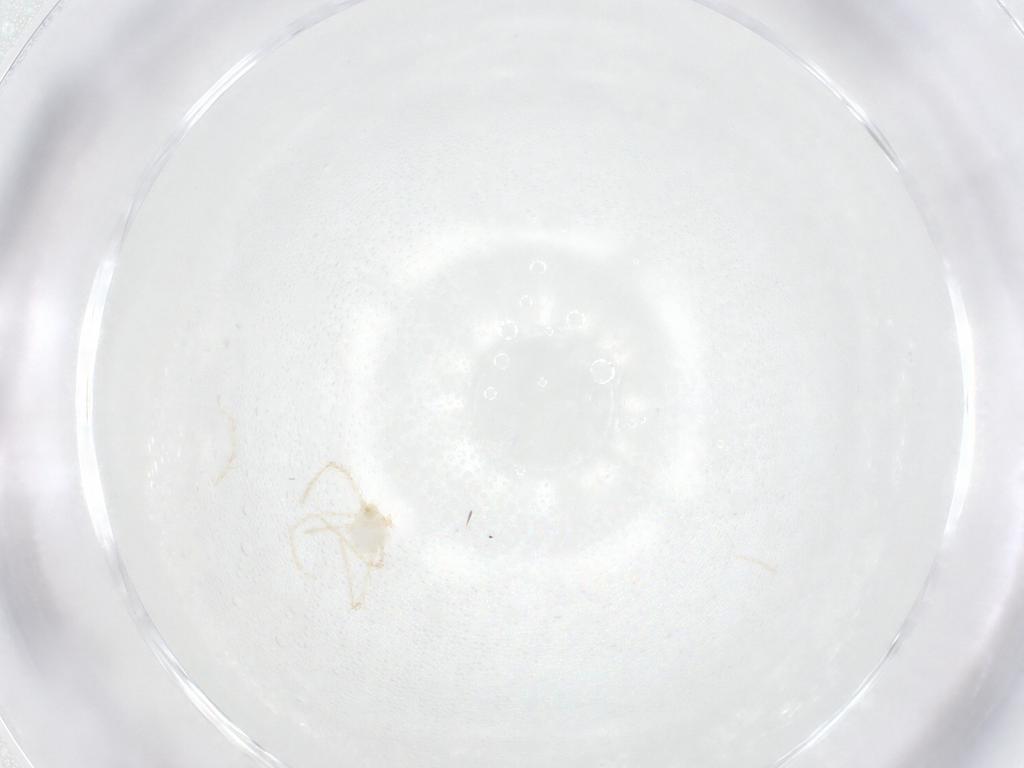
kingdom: Animalia
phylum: Arthropoda
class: Arachnida
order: Trombidiformes
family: Erythraeidae
